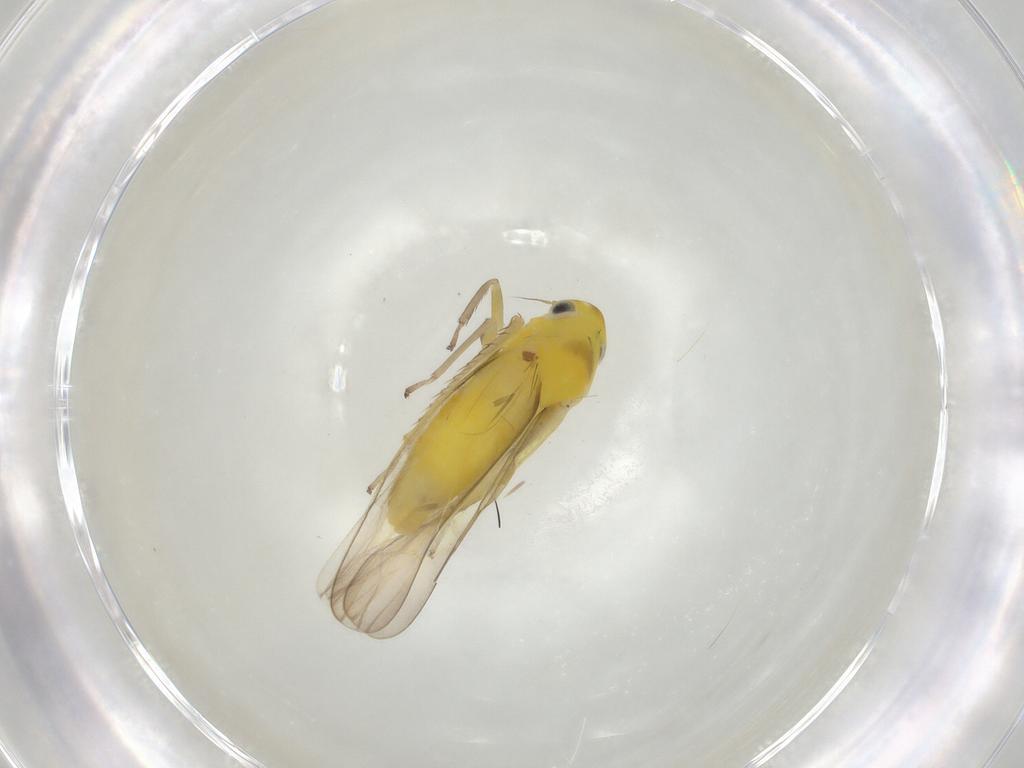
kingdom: Animalia
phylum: Arthropoda
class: Insecta
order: Hemiptera
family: Cicadellidae
